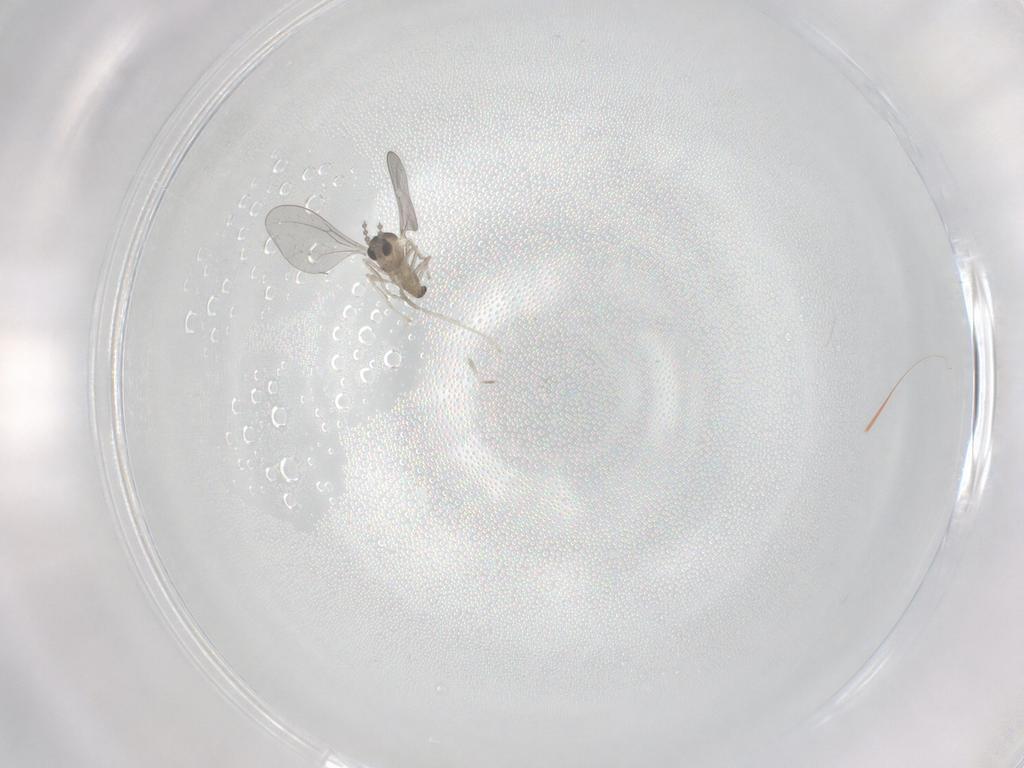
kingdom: Animalia
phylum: Arthropoda
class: Insecta
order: Diptera
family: Cecidomyiidae
